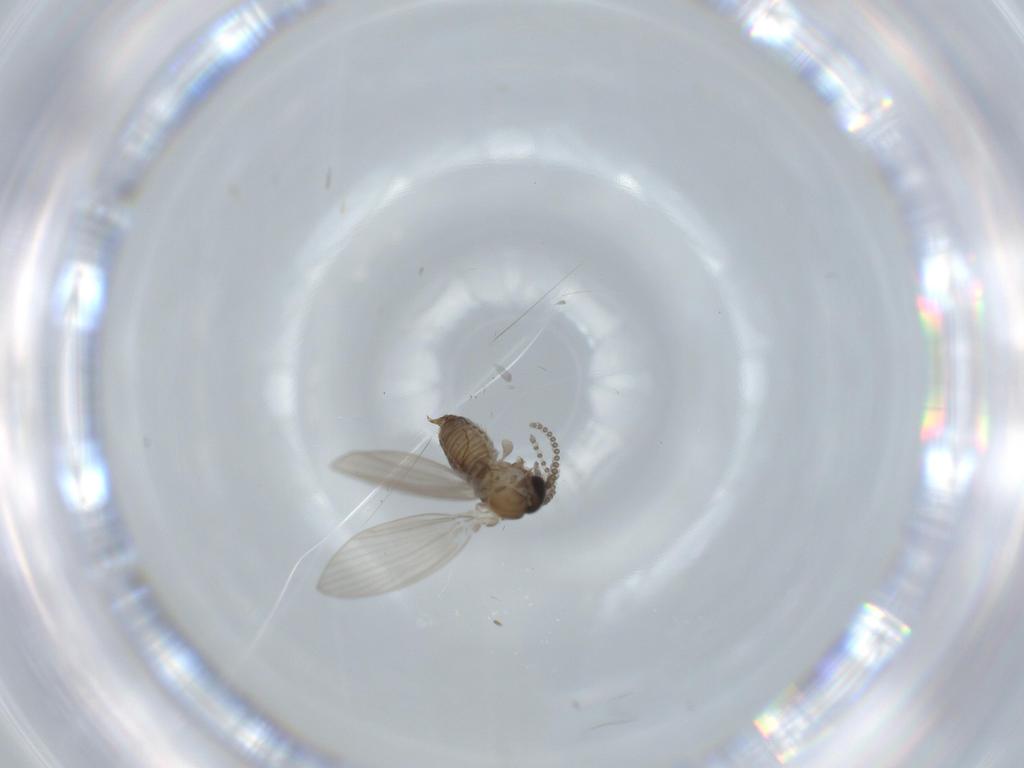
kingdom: Animalia
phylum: Arthropoda
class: Insecta
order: Diptera
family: Psychodidae
